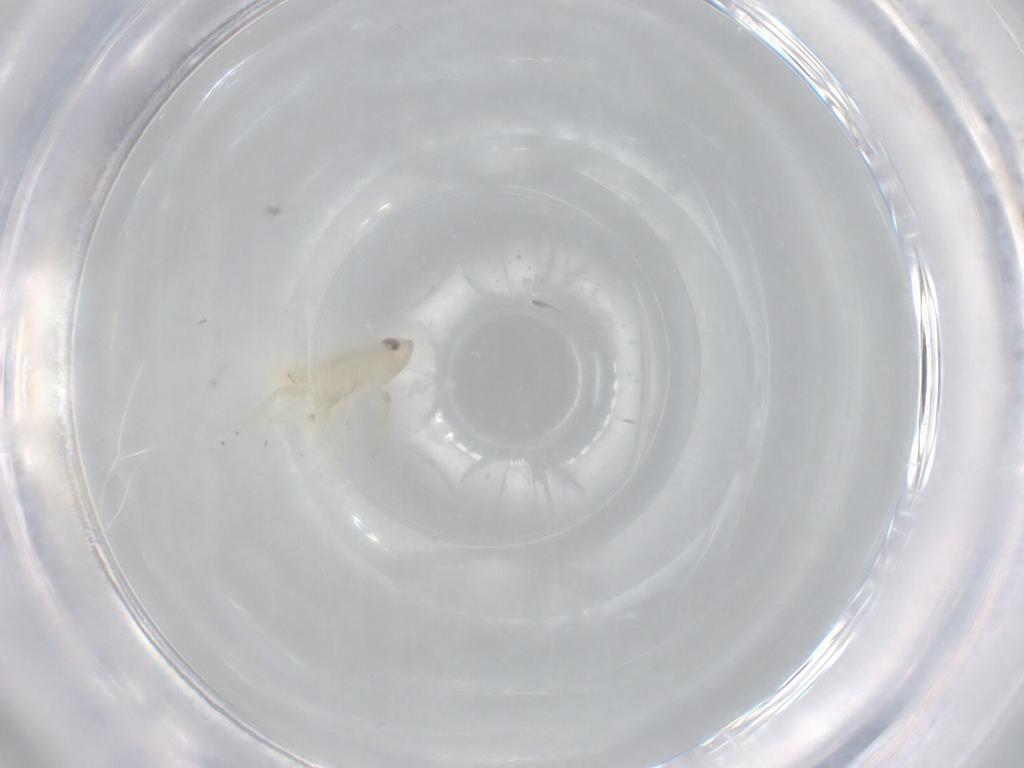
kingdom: Animalia
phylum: Arthropoda
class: Insecta
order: Hemiptera
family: Tropiduchidae
